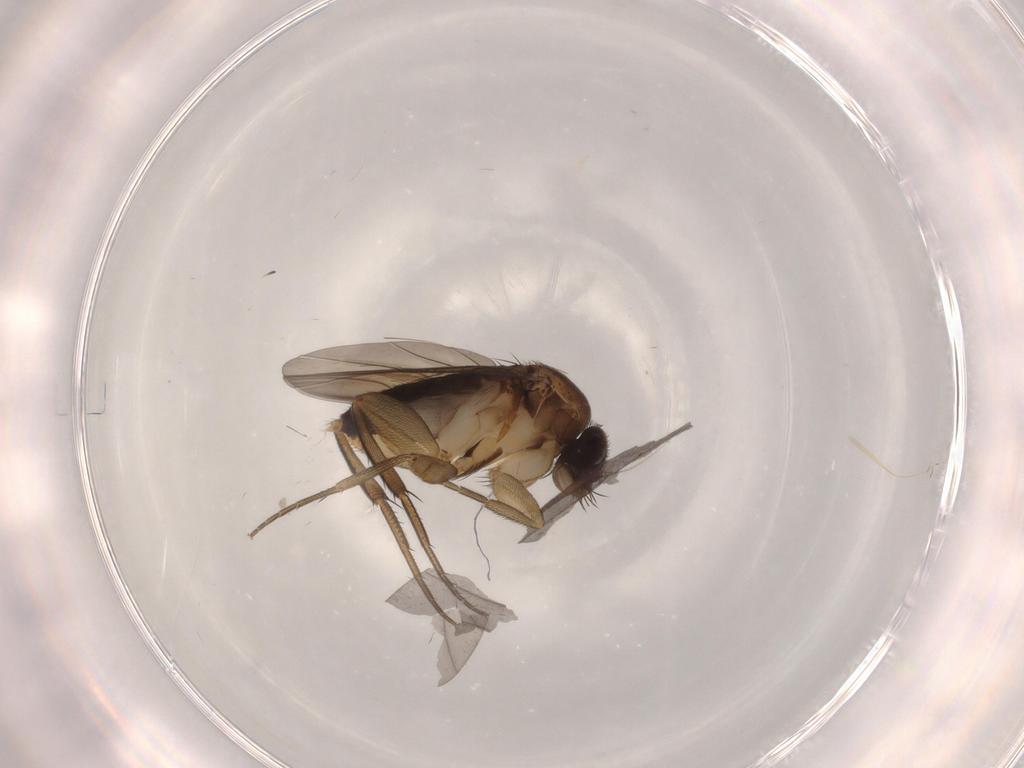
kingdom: Animalia
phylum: Arthropoda
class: Insecta
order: Diptera
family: Phoridae
